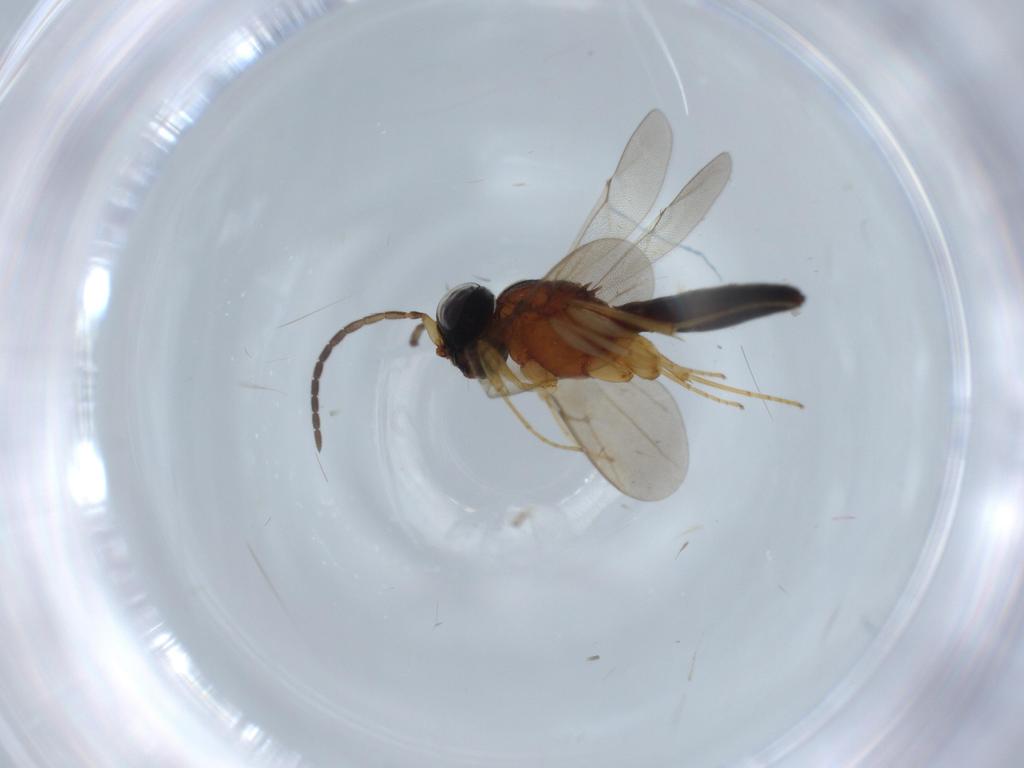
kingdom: Animalia
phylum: Arthropoda
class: Insecta
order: Hymenoptera
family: Vespidae
